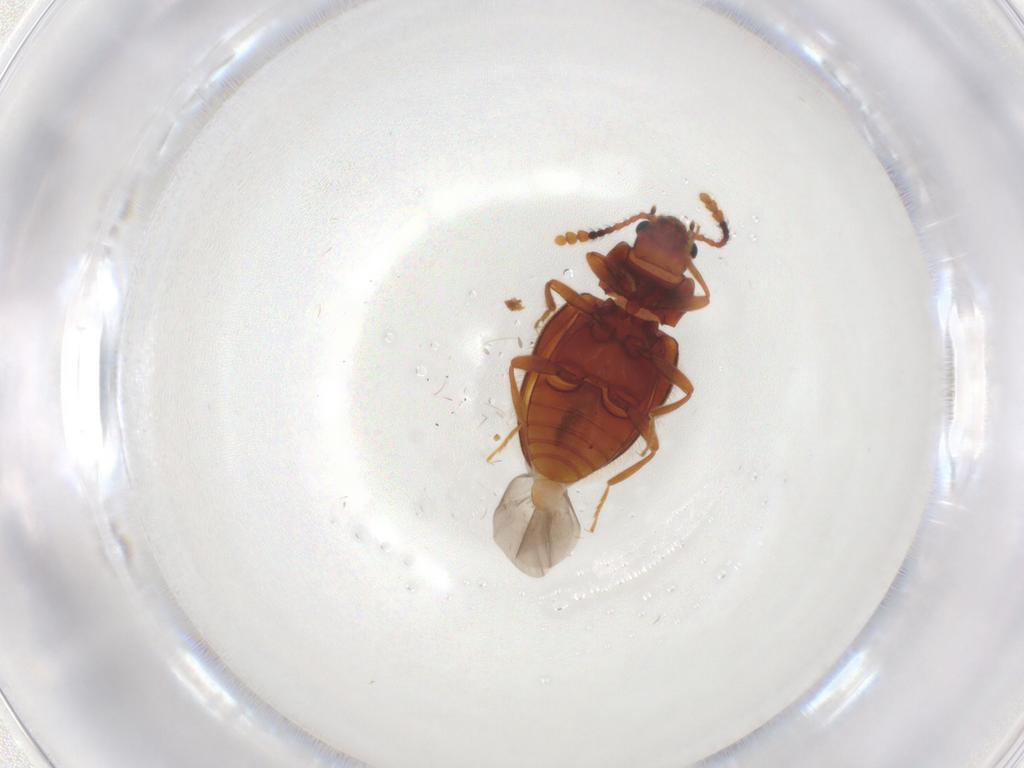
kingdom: Animalia
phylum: Arthropoda
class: Insecta
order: Coleoptera
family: Erotylidae
